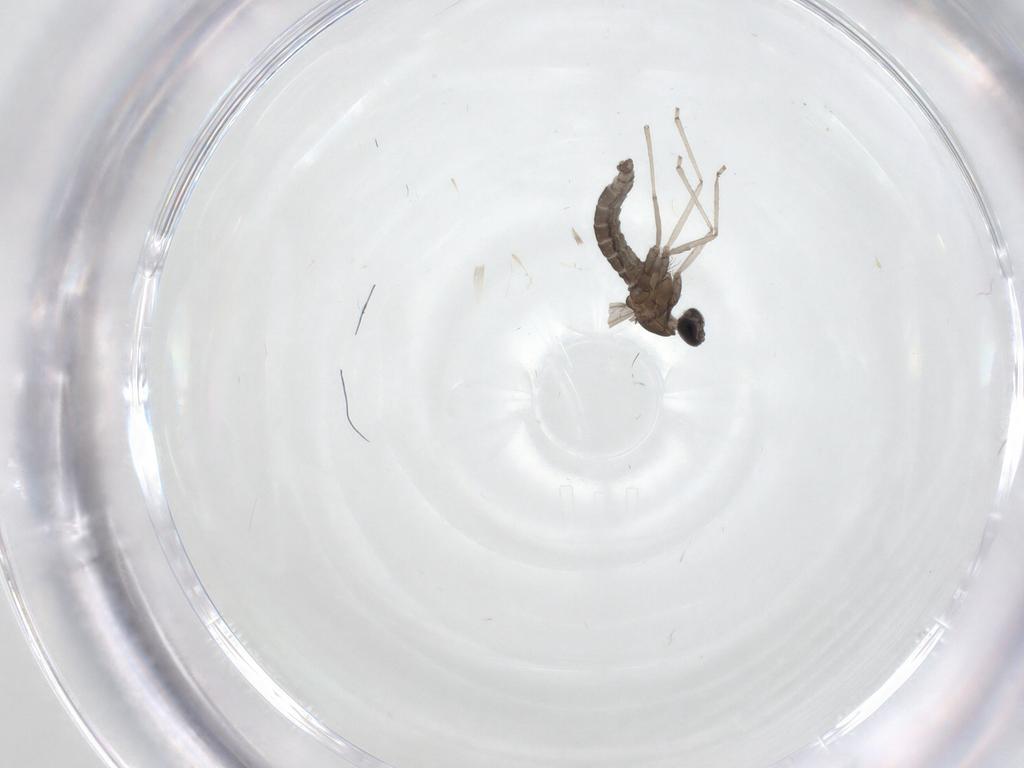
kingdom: Animalia
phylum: Arthropoda
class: Insecta
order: Diptera
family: Cecidomyiidae
